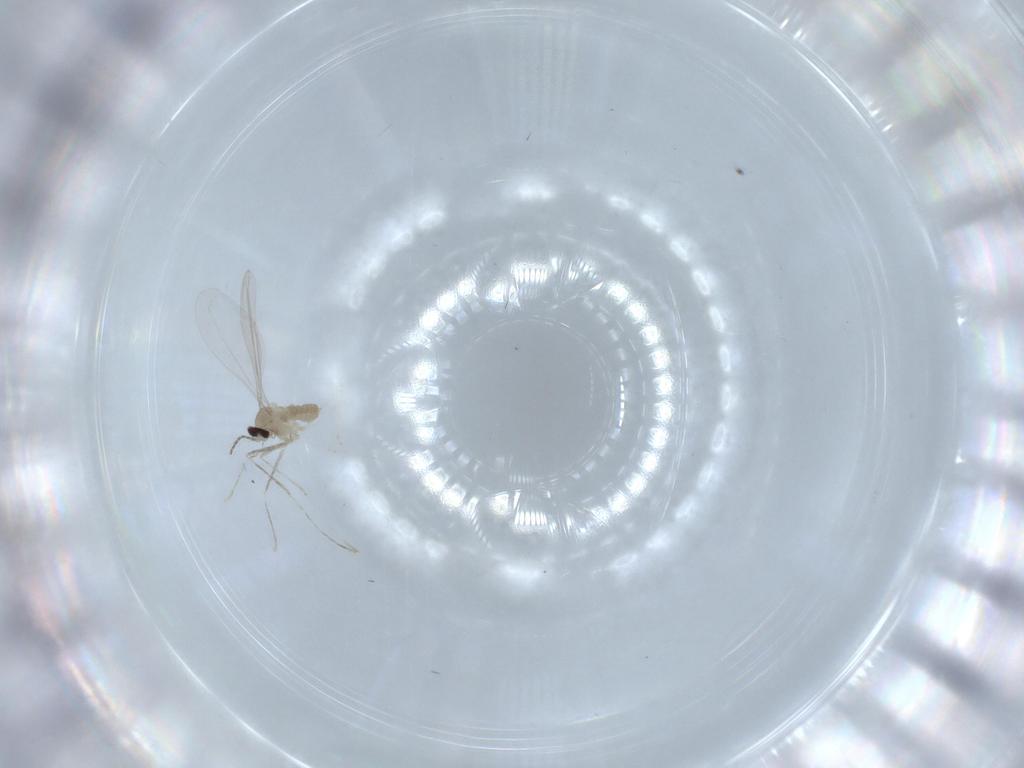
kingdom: Animalia
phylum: Arthropoda
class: Insecta
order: Diptera
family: Cecidomyiidae
